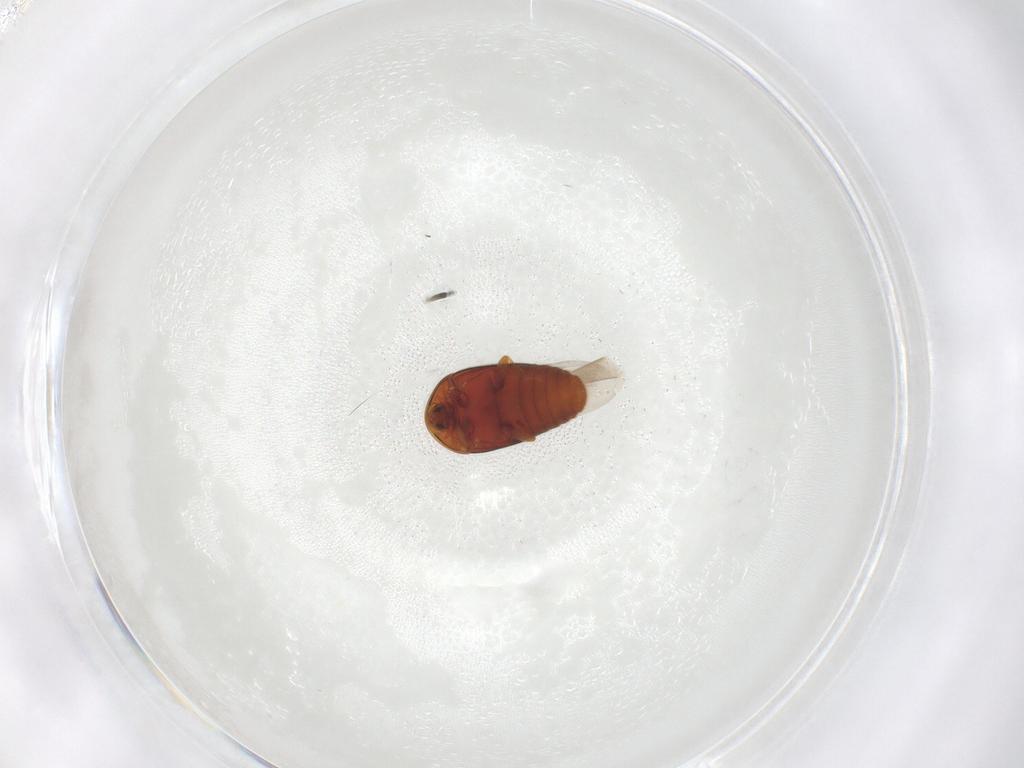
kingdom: Animalia
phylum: Arthropoda
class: Insecta
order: Coleoptera
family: Corylophidae
